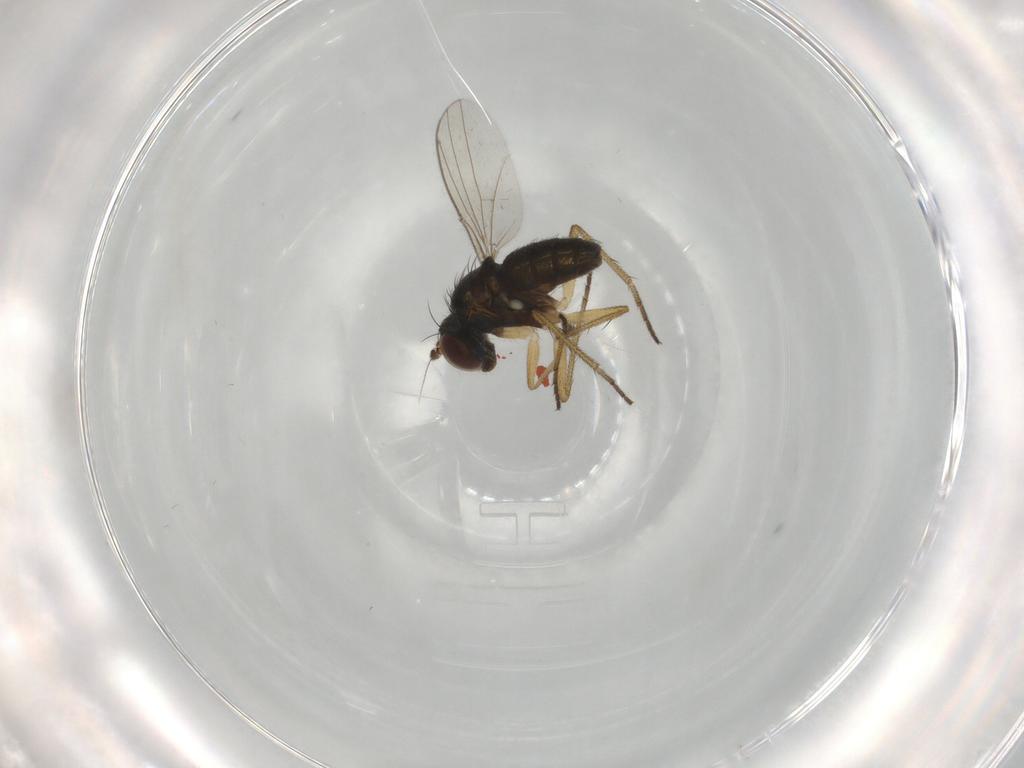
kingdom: Animalia
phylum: Arthropoda
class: Insecta
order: Diptera
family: Dolichopodidae
